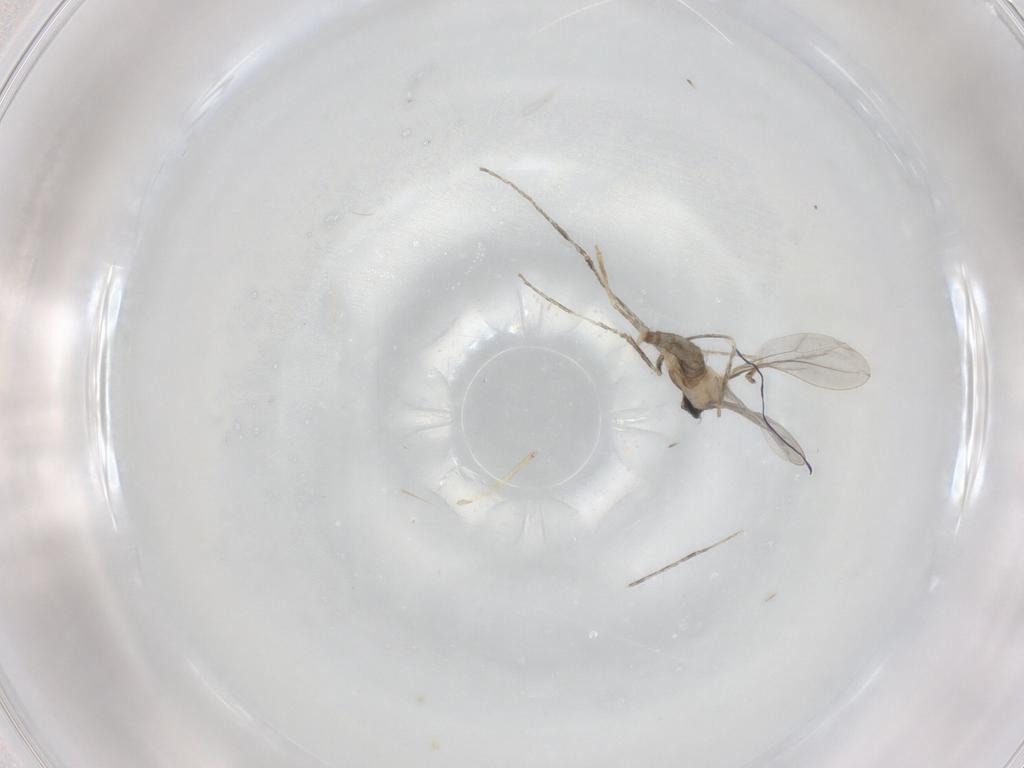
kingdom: Animalia
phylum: Arthropoda
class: Insecta
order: Diptera
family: Cecidomyiidae
